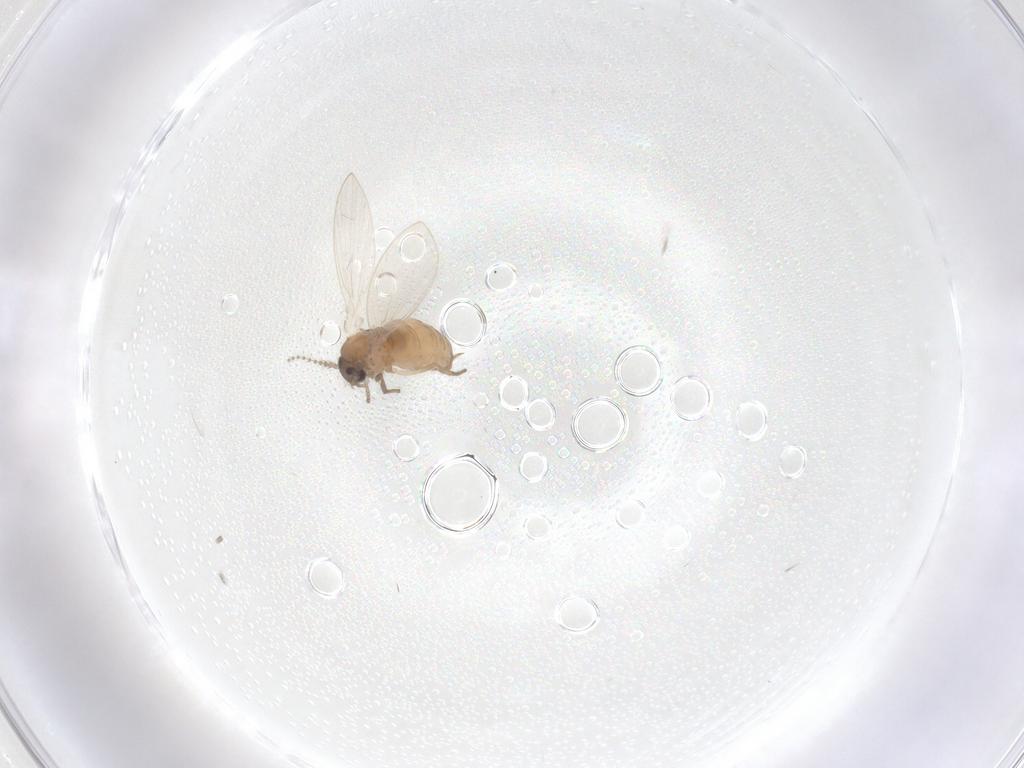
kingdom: Animalia
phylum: Arthropoda
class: Insecta
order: Diptera
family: Psychodidae
